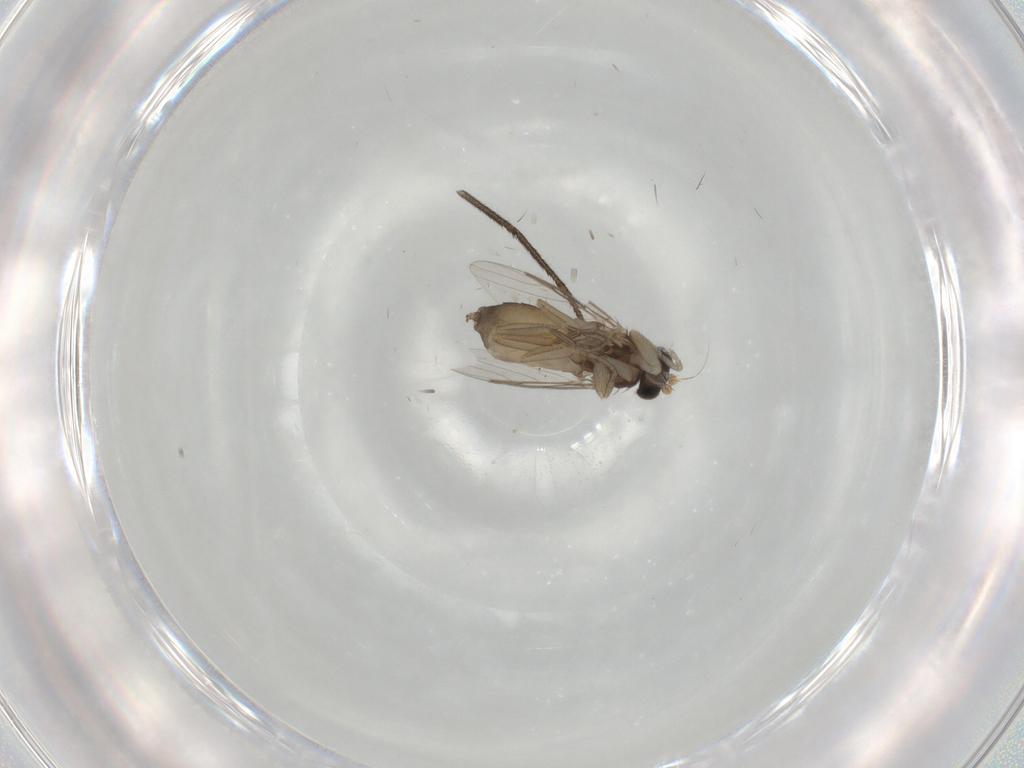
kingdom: Animalia
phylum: Arthropoda
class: Insecta
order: Diptera
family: Phoridae
